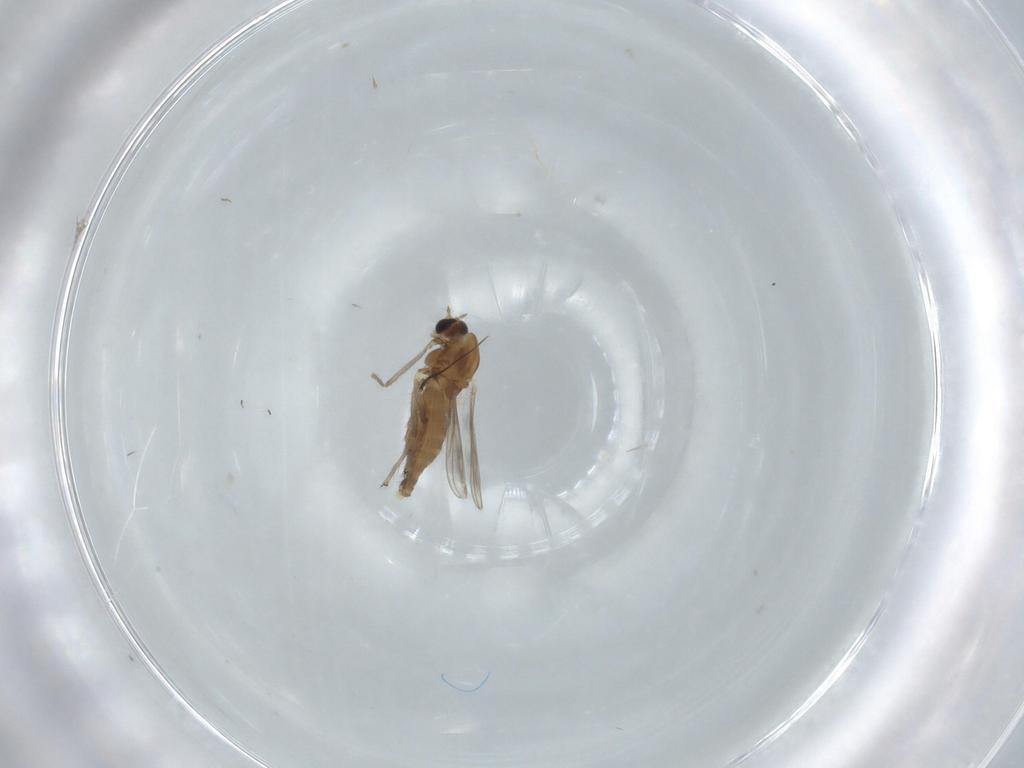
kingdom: Animalia
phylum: Arthropoda
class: Insecta
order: Diptera
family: Chironomidae
